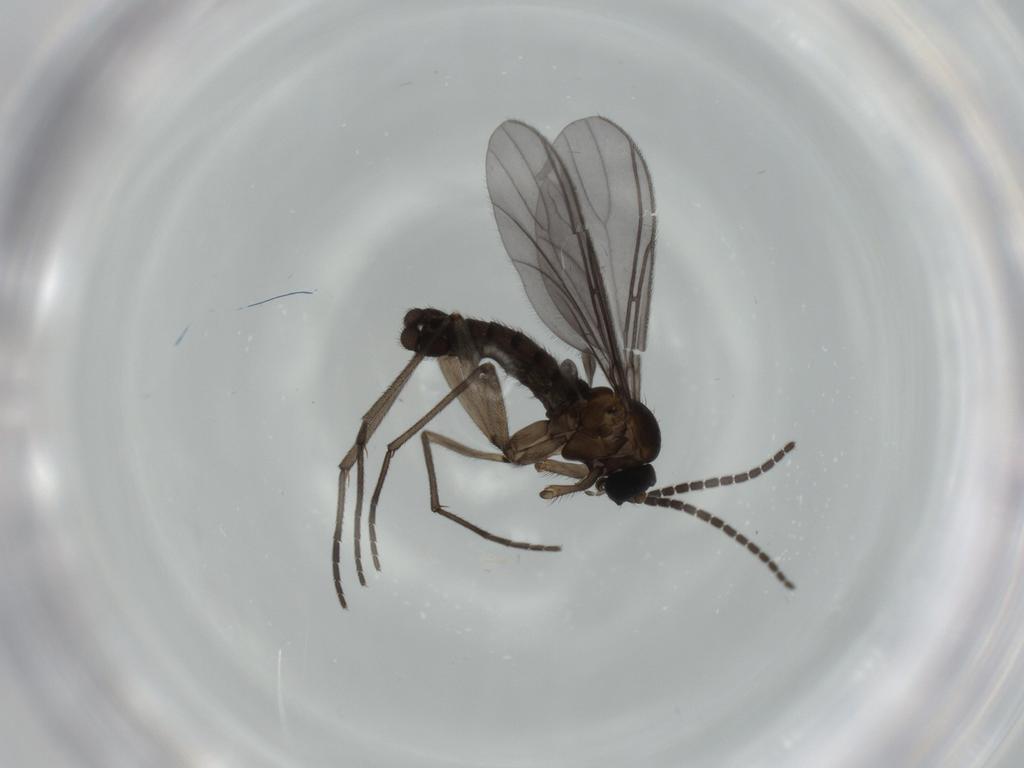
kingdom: Animalia
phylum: Arthropoda
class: Insecta
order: Diptera
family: Sciaridae
